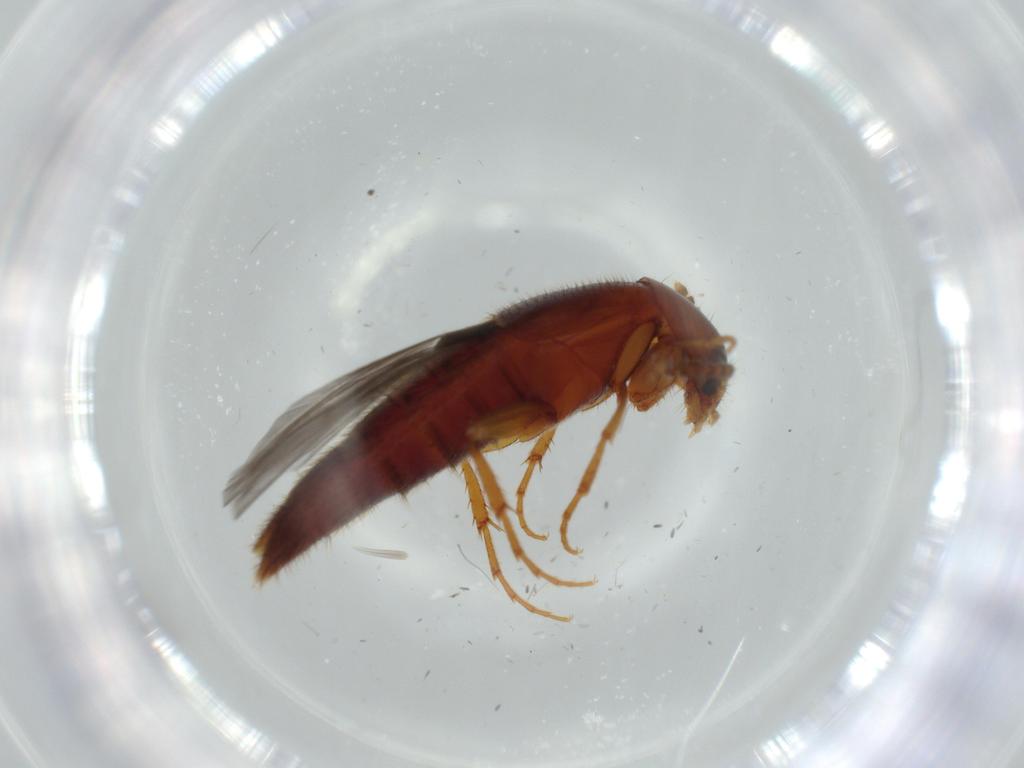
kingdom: Animalia
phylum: Arthropoda
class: Insecta
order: Coleoptera
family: Staphylinidae
